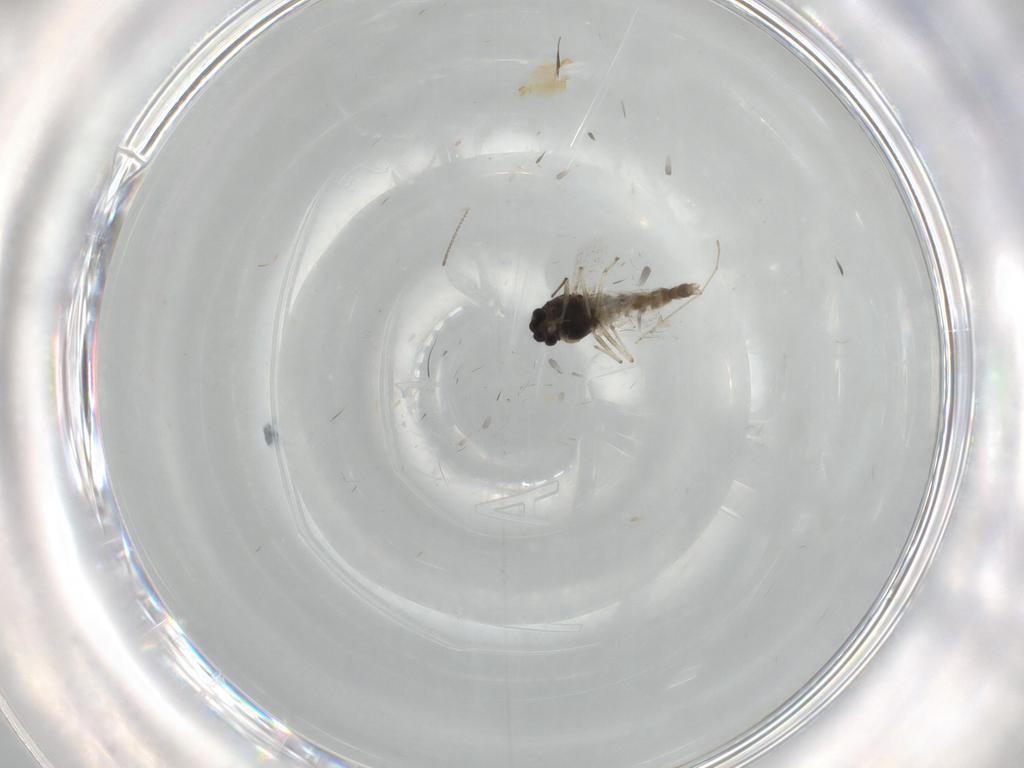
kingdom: Animalia
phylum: Arthropoda
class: Insecta
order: Diptera
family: Chironomidae
